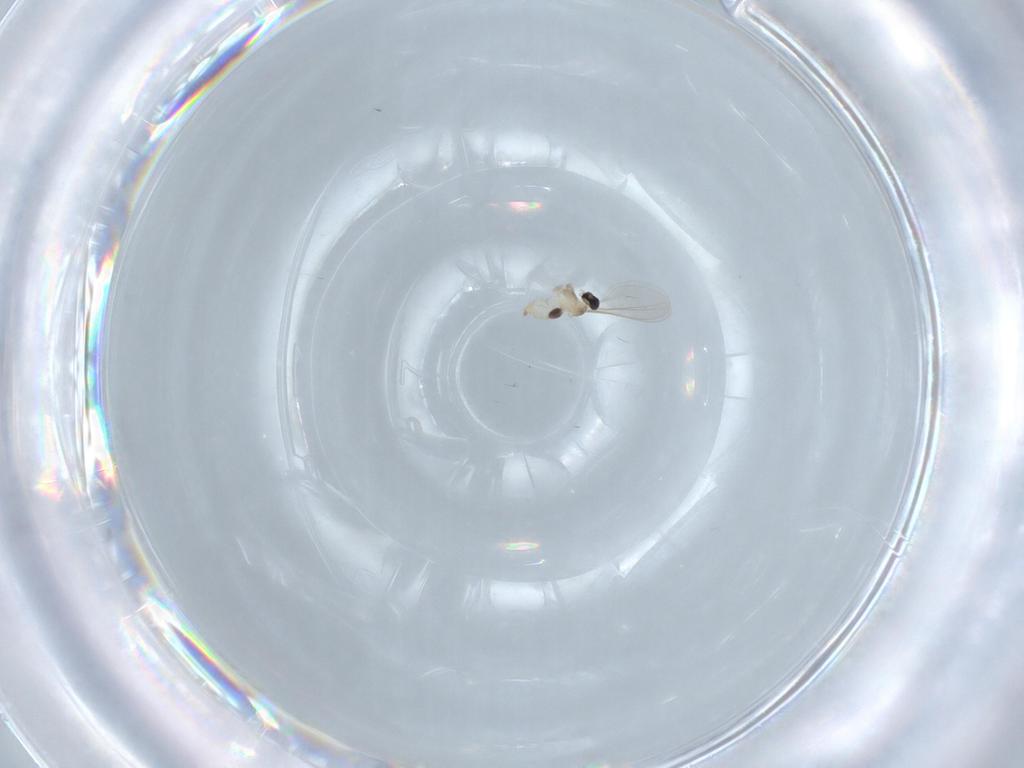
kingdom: Animalia
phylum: Arthropoda
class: Insecta
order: Diptera
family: Cecidomyiidae
